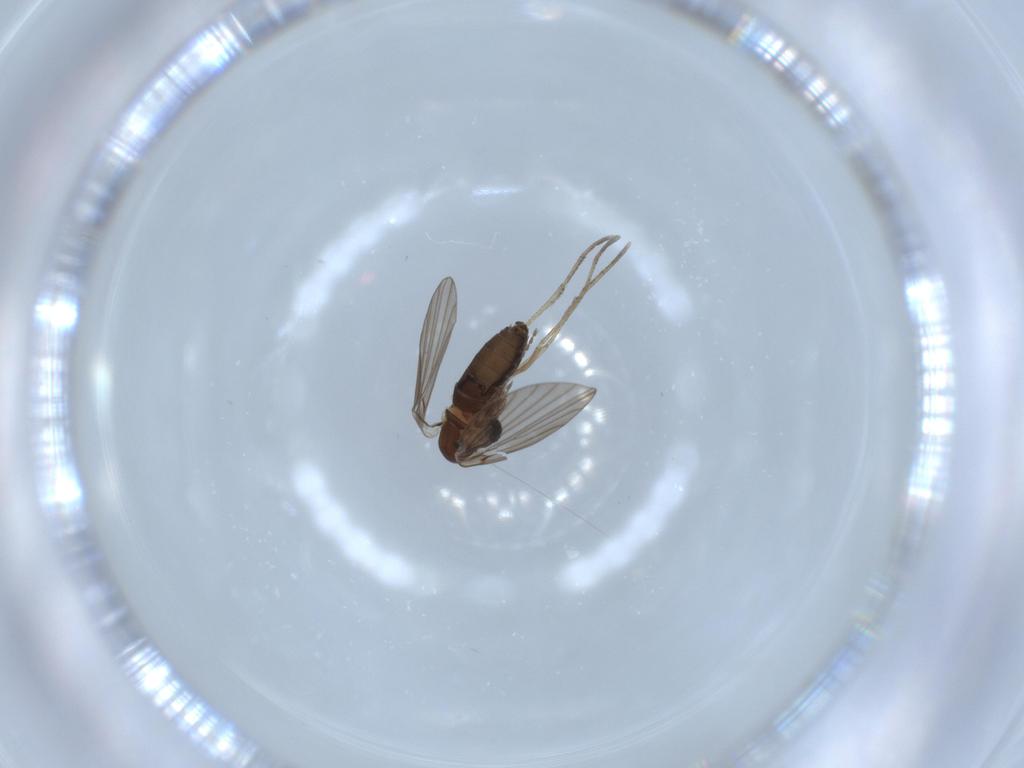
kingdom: Animalia
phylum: Arthropoda
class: Insecta
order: Diptera
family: Psychodidae
